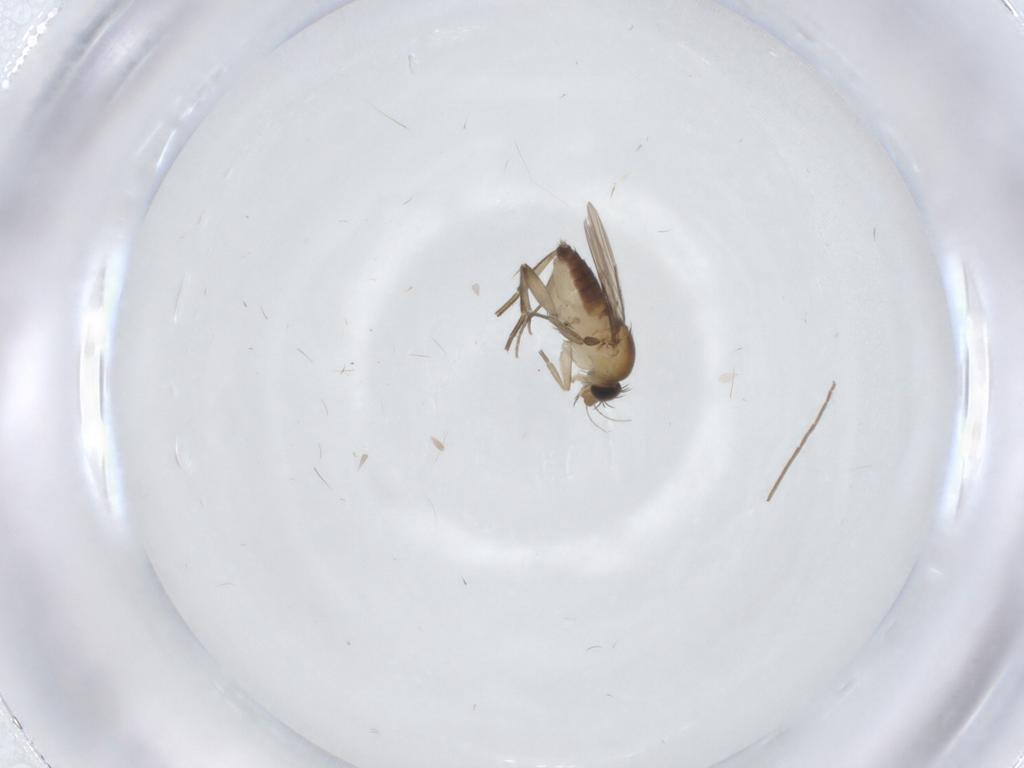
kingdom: Animalia
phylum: Arthropoda
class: Insecta
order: Diptera
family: Phoridae
